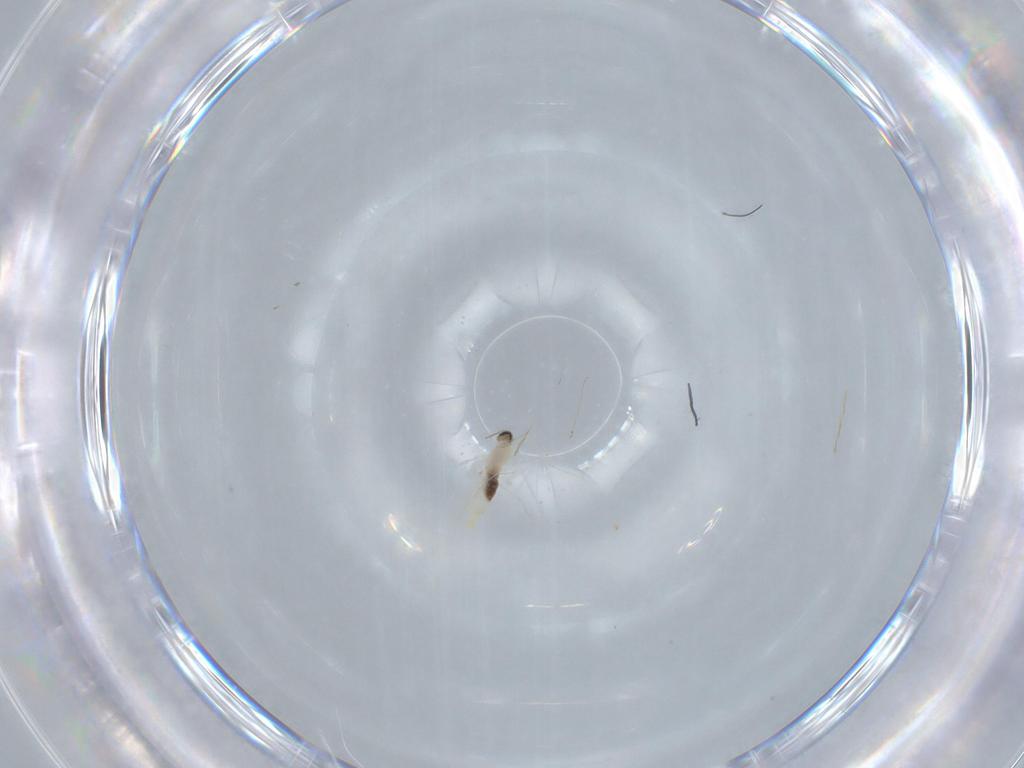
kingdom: Animalia
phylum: Arthropoda
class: Insecta
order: Diptera
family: Cecidomyiidae
